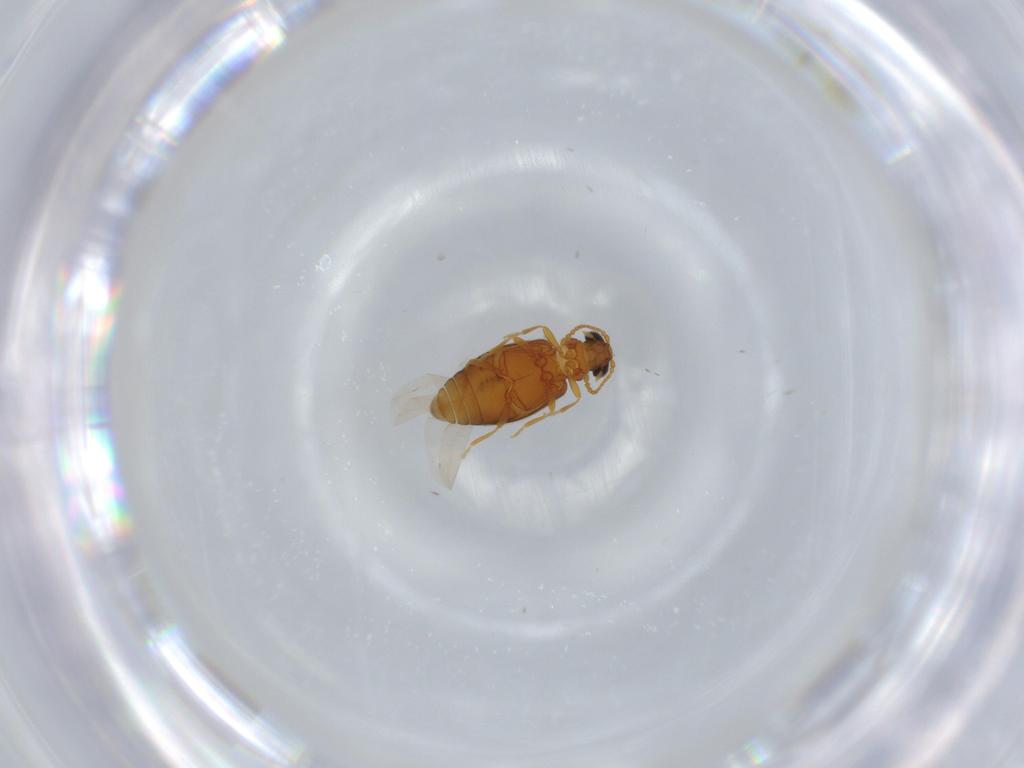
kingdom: Animalia
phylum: Arthropoda
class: Insecta
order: Coleoptera
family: Aderidae
